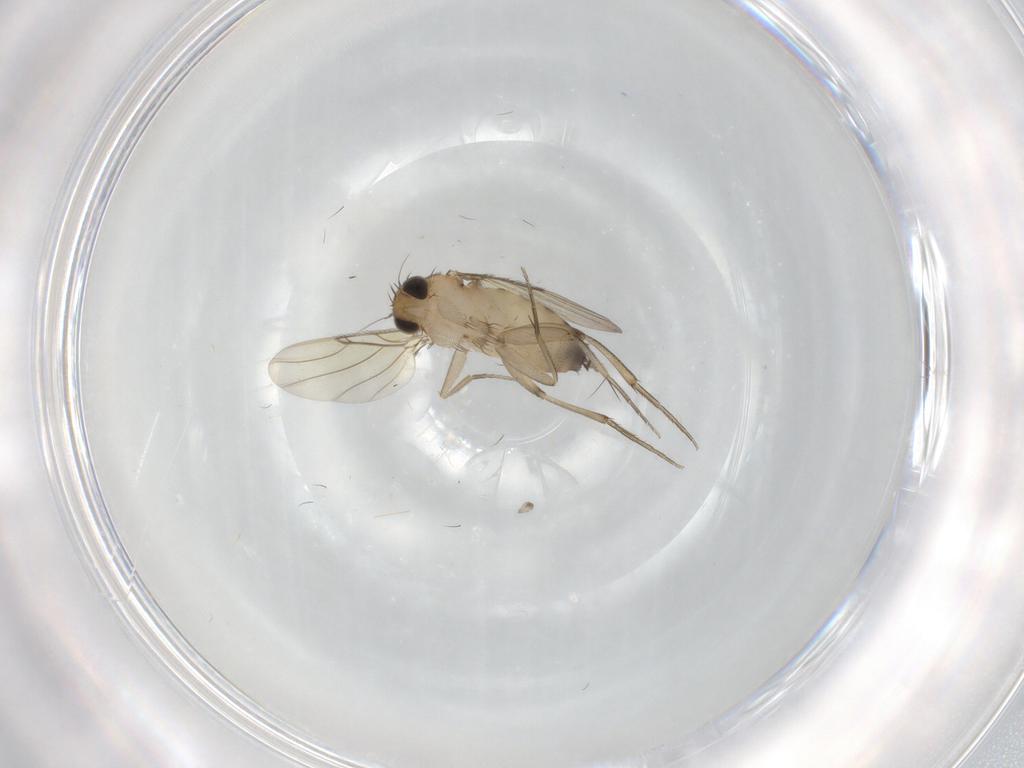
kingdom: Animalia
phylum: Arthropoda
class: Insecta
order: Diptera
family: Phoridae
